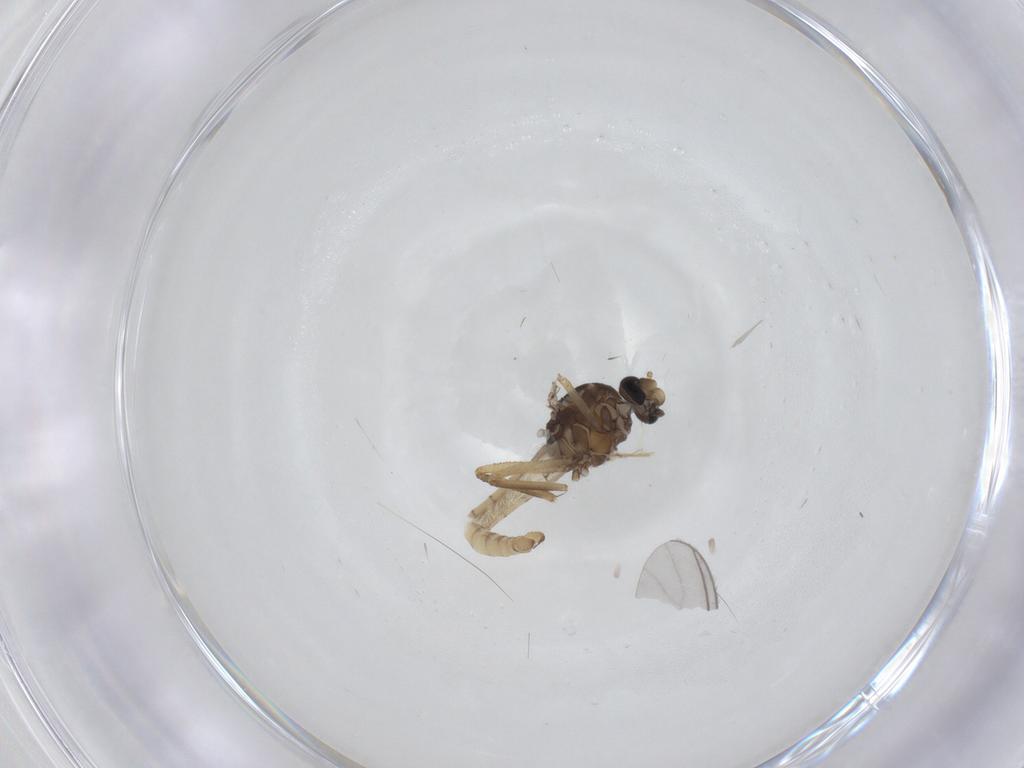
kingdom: Animalia
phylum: Arthropoda
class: Insecta
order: Diptera
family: Ceratopogonidae
